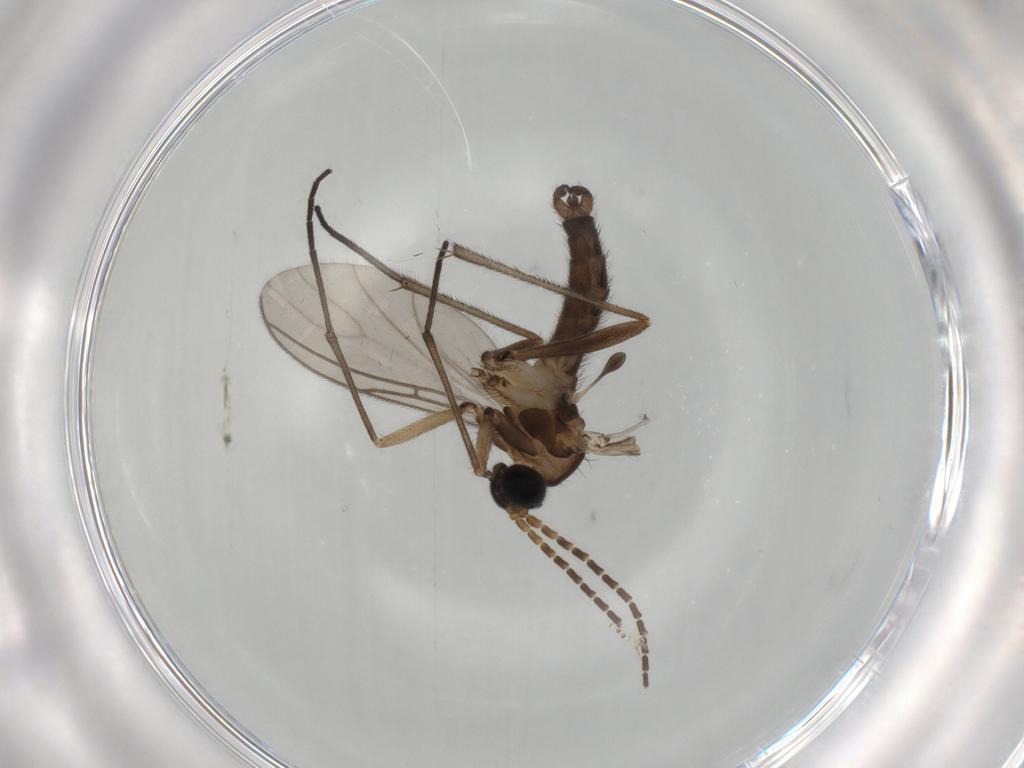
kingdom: Animalia
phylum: Arthropoda
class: Insecta
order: Diptera
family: Sciaridae
